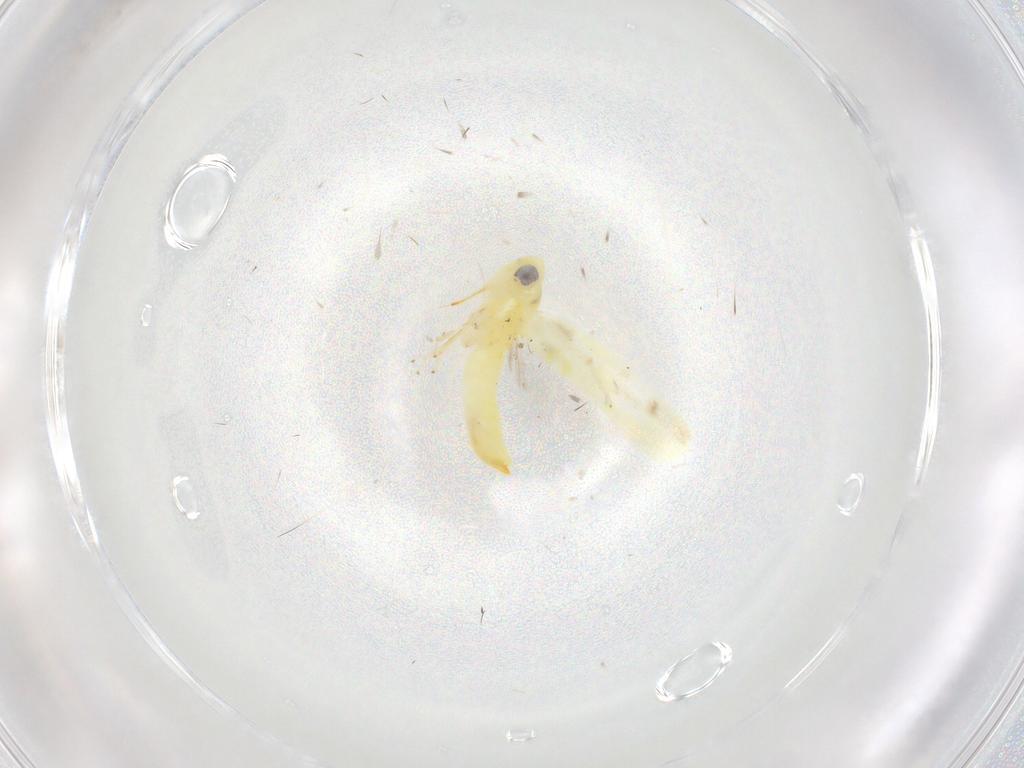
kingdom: Animalia
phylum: Arthropoda
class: Insecta
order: Hemiptera
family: Cicadellidae
